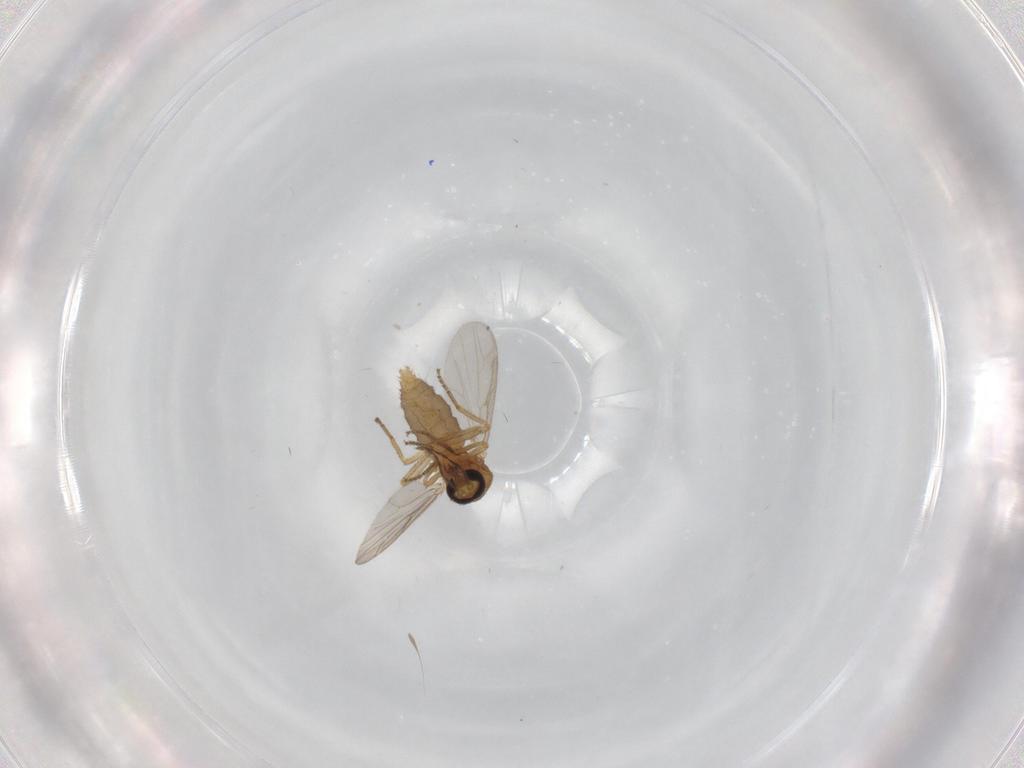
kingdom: Animalia
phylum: Arthropoda
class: Insecta
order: Diptera
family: Ceratopogonidae
